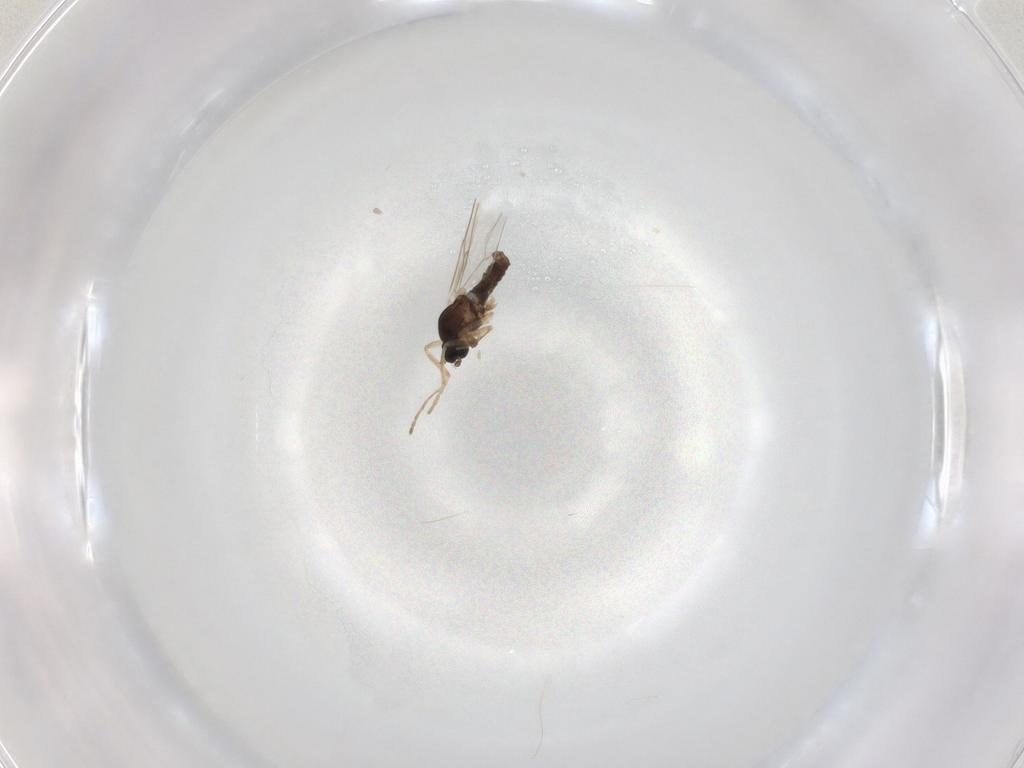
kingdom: Animalia
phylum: Arthropoda
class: Insecta
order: Diptera
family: Cecidomyiidae
